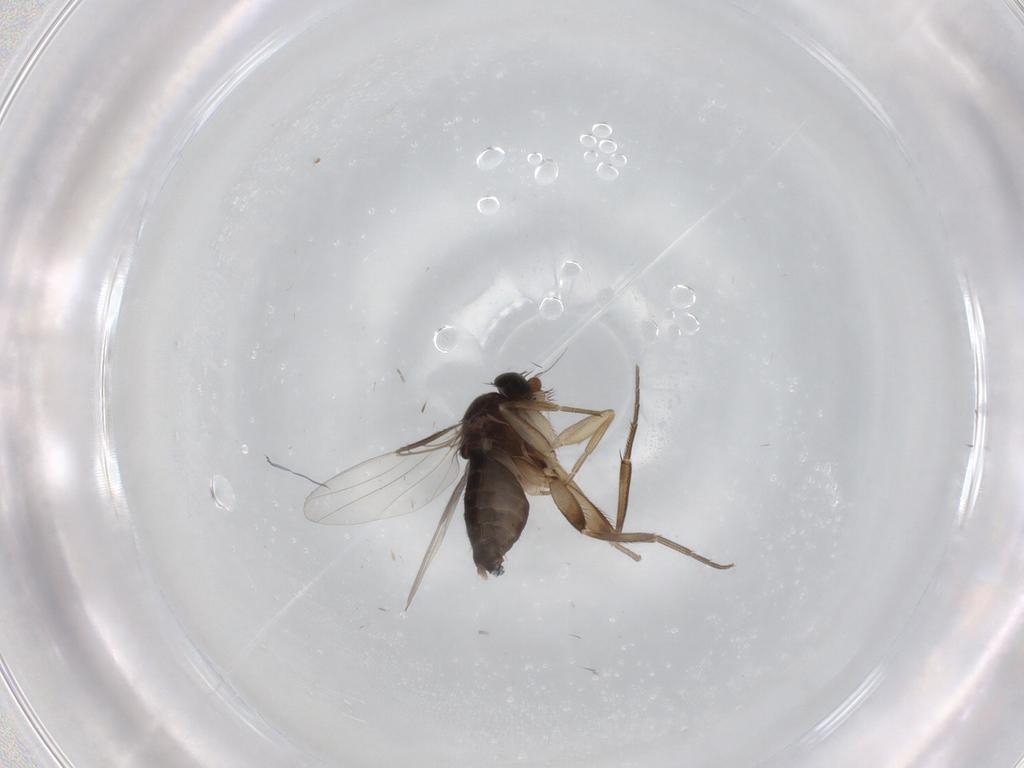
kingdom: Animalia
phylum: Arthropoda
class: Insecta
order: Diptera
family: Phoridae
